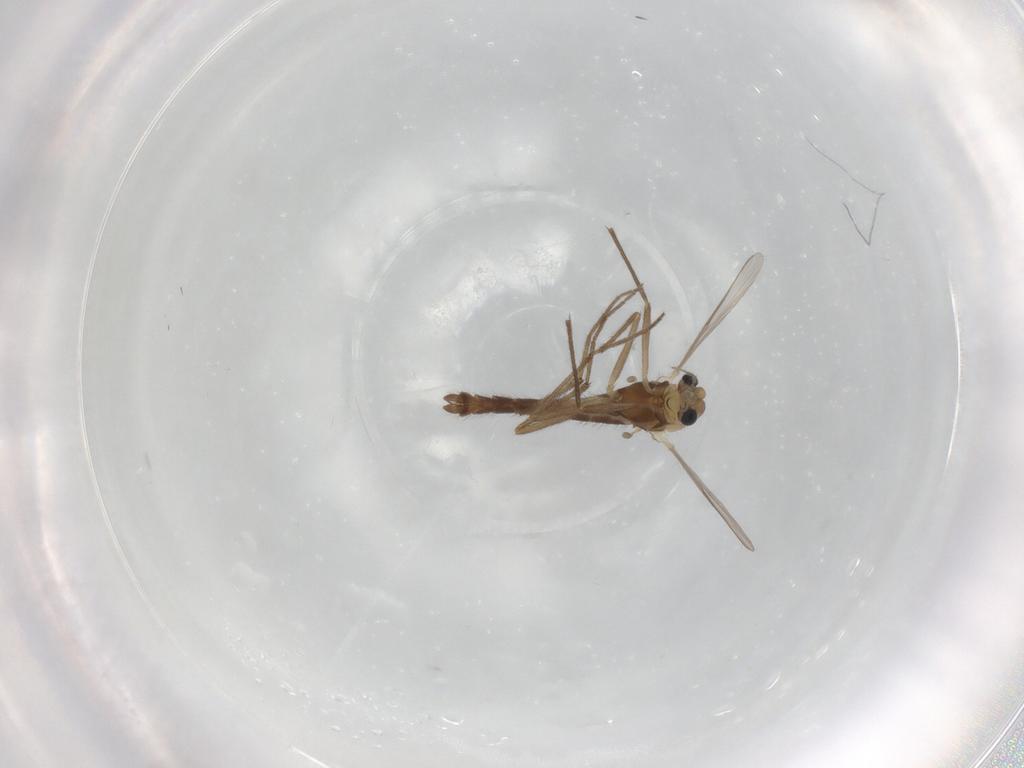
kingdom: Animalia
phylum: Arthropoda
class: Insecta
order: Diptera
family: Chironomidae
